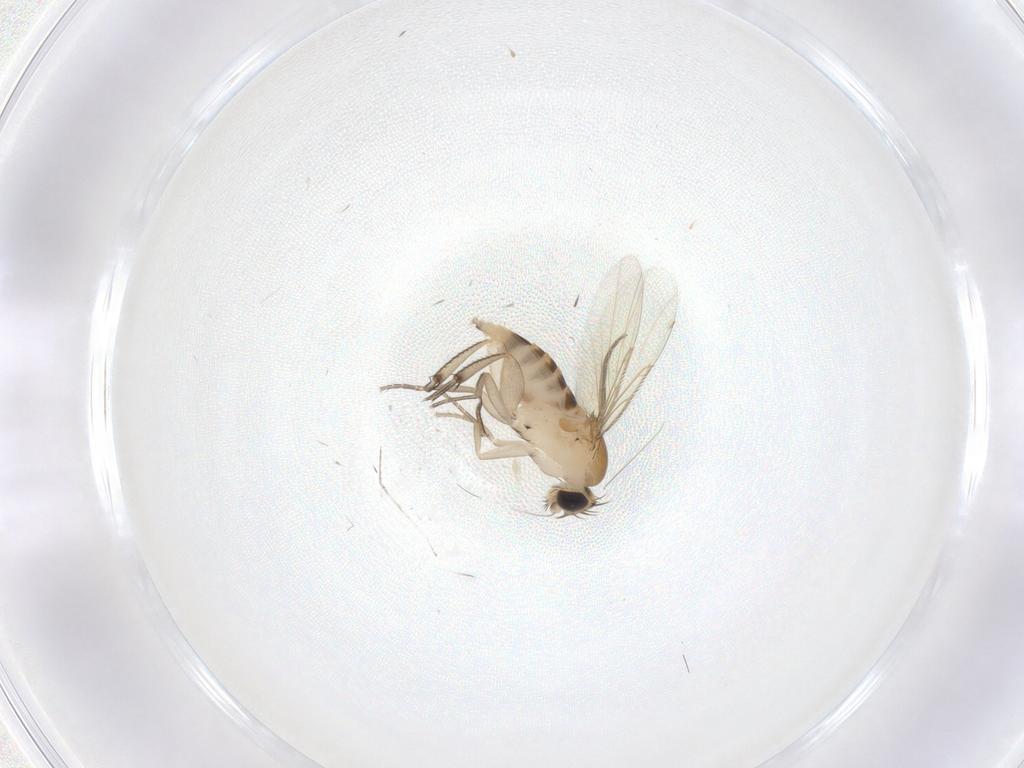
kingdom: Animalia
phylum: Arthropoda
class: Insecta
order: Diptera
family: Phoridae
